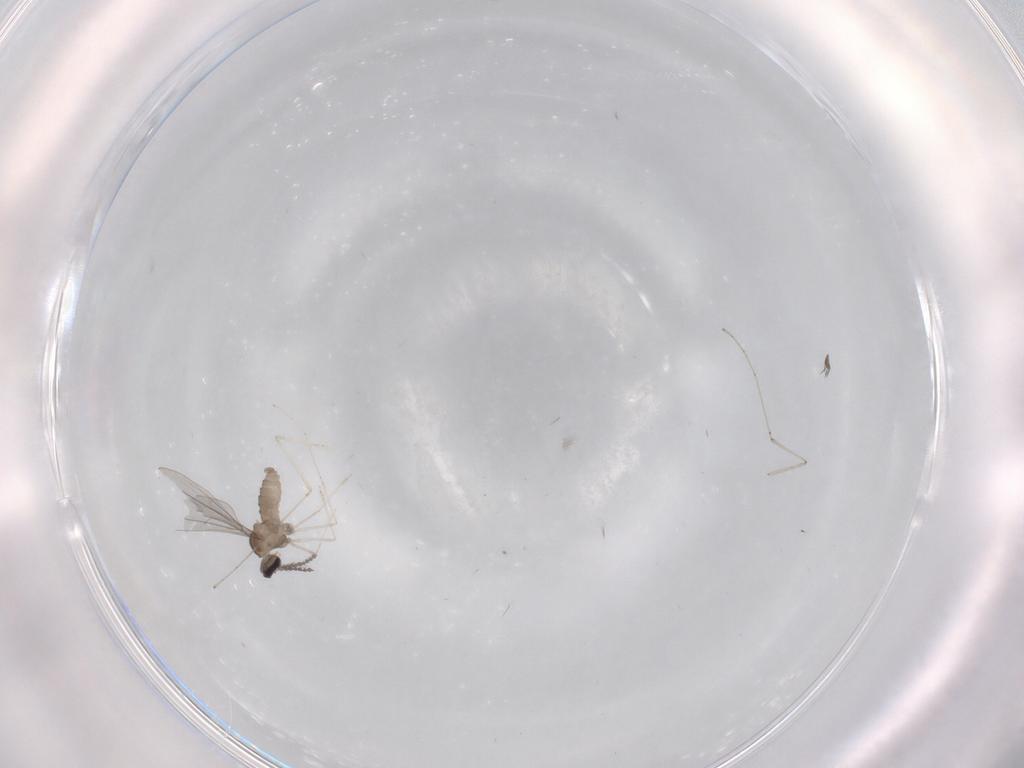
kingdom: Animalia
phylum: Arthropoda
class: Insecta
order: Diptera
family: Cecidomyiidae
